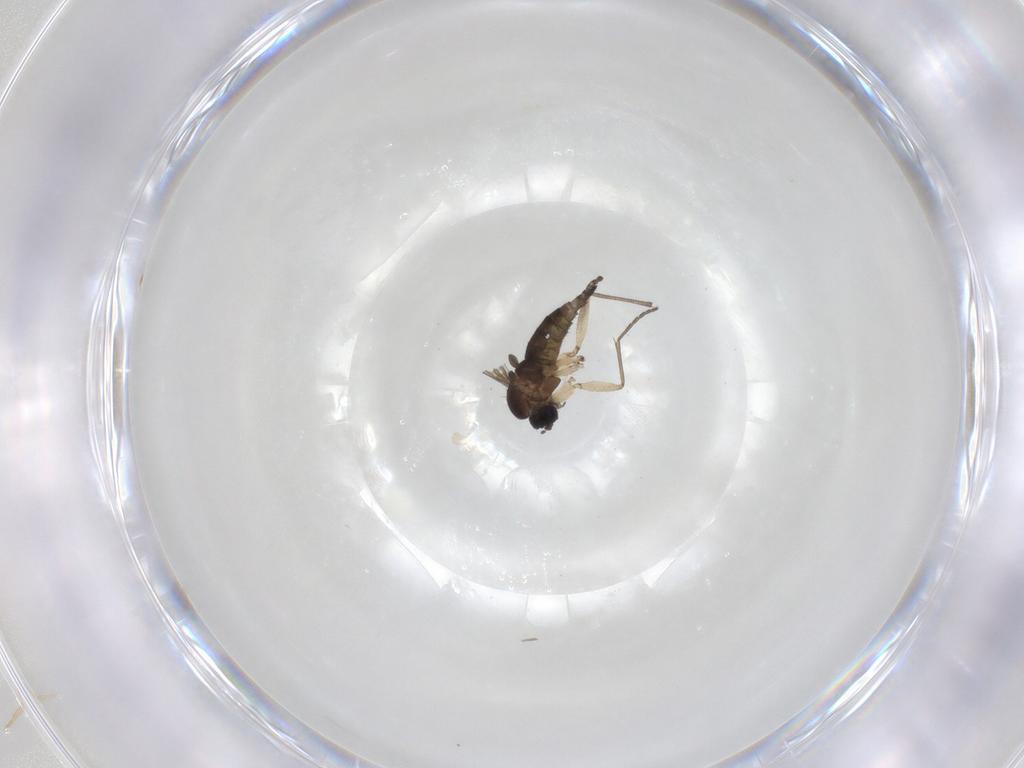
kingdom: Animalia
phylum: Arthropoda
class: Insecta
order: Diptera
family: Sciaridae
